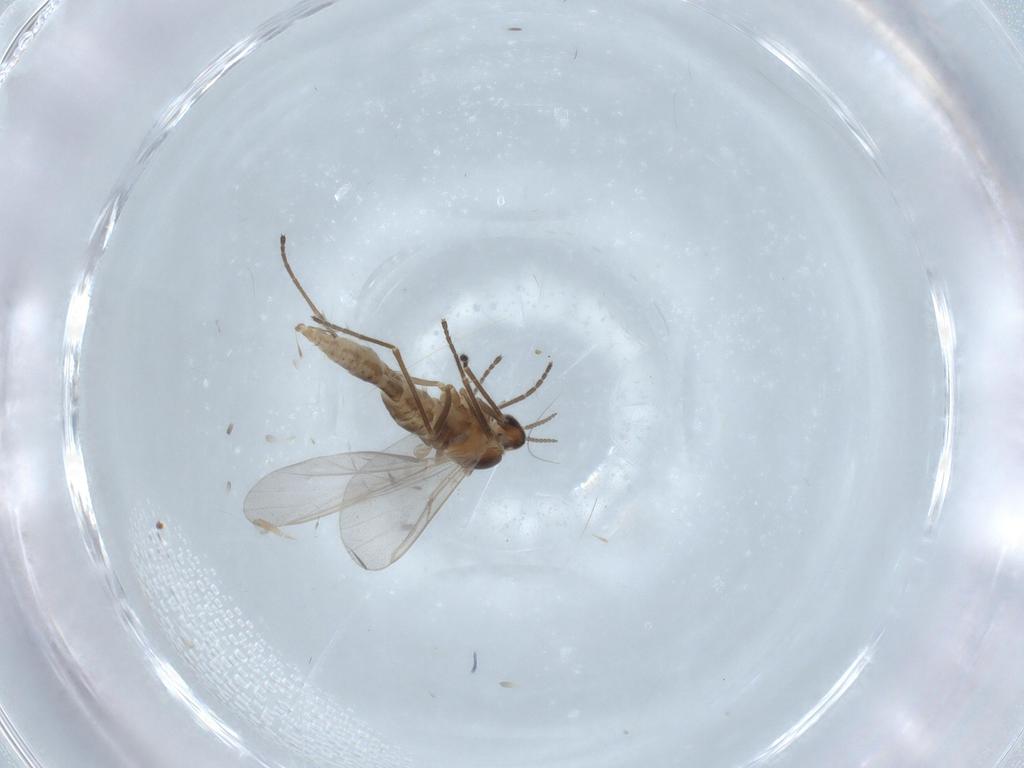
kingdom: Animalia
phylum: Arthropoda
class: Insecta
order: Diptera
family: Cecidomyiidae
